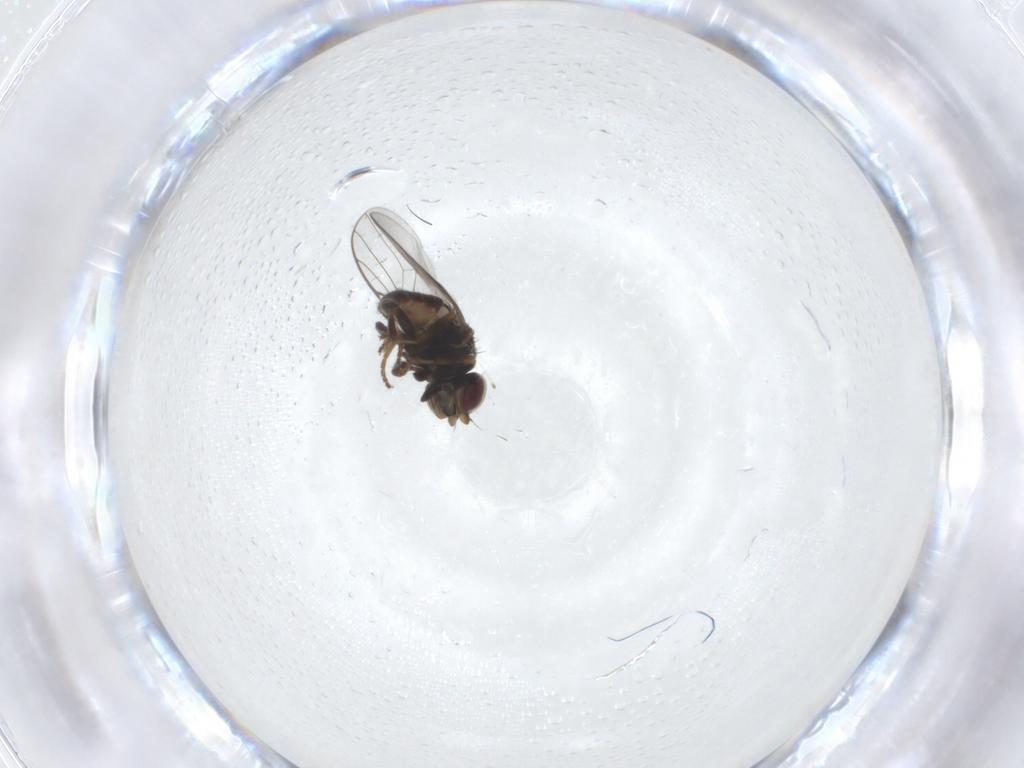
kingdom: Animalia
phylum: Arthropoda
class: Insecta
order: Diptera
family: Chloropidae
